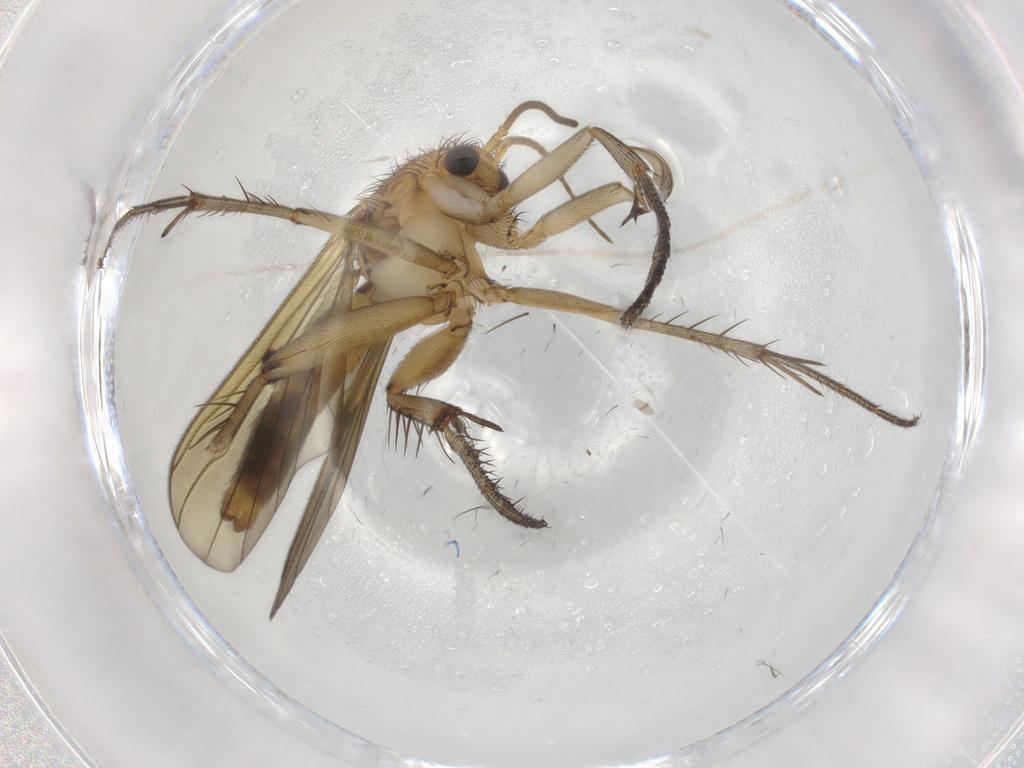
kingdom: Animalia
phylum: Arthropoda
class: Insecta
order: Diptera
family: Mycetophilidae
